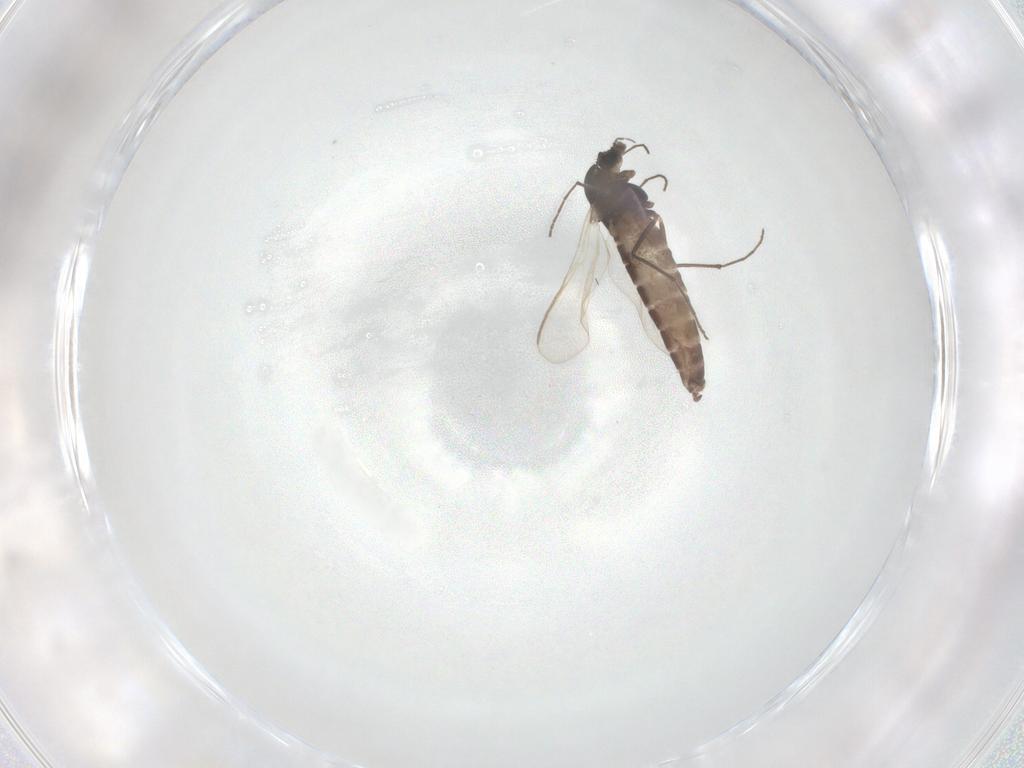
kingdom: Animalia
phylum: Arthropoda
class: Insecta
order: Diptera
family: Chironomidae
